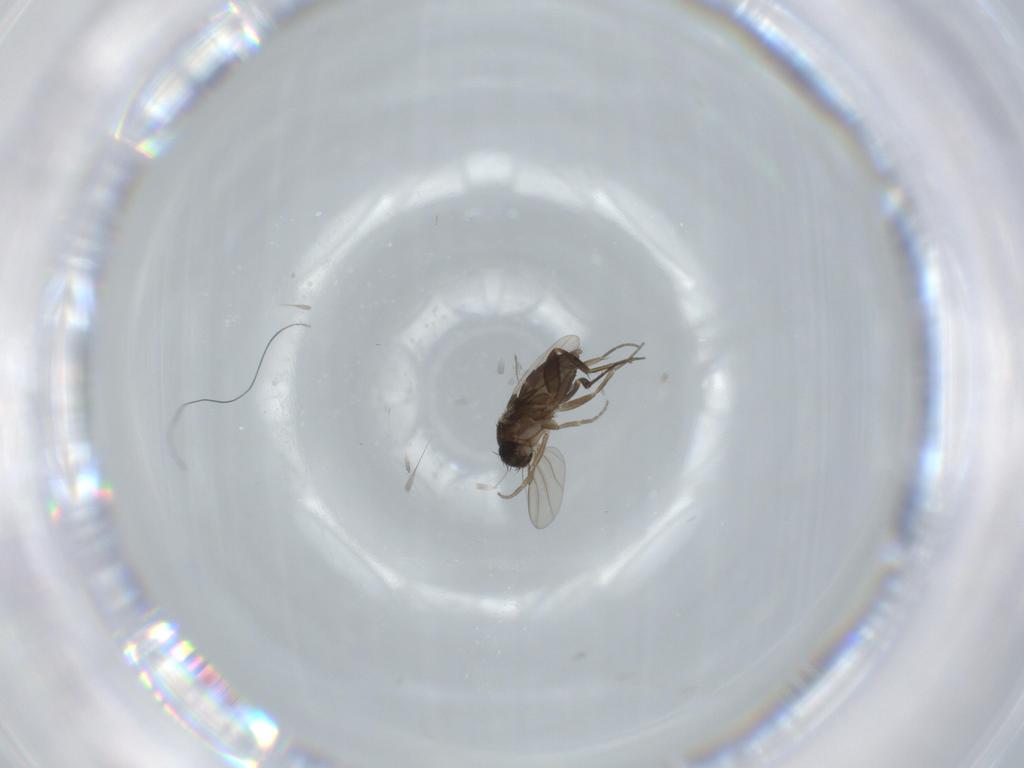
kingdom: Animalia
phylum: Arthropoda
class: Insecta
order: Diptera
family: Phoridae
